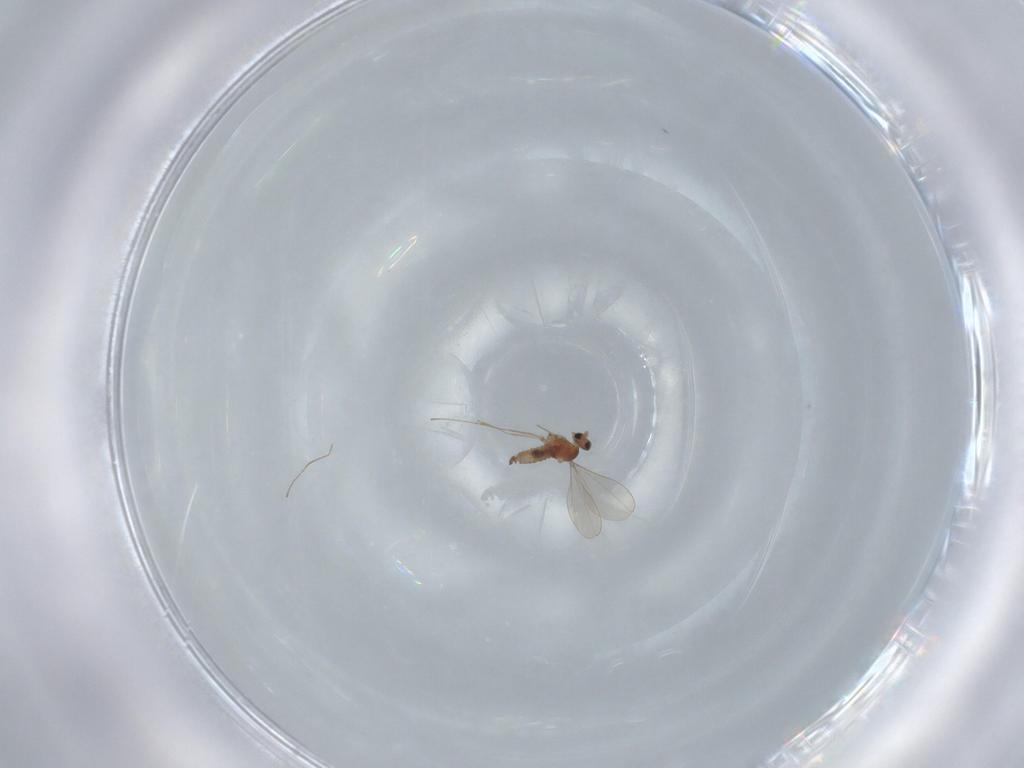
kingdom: Animalia
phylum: Arthropoda
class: Insecta
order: Diptera
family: Cecidomyiidae
